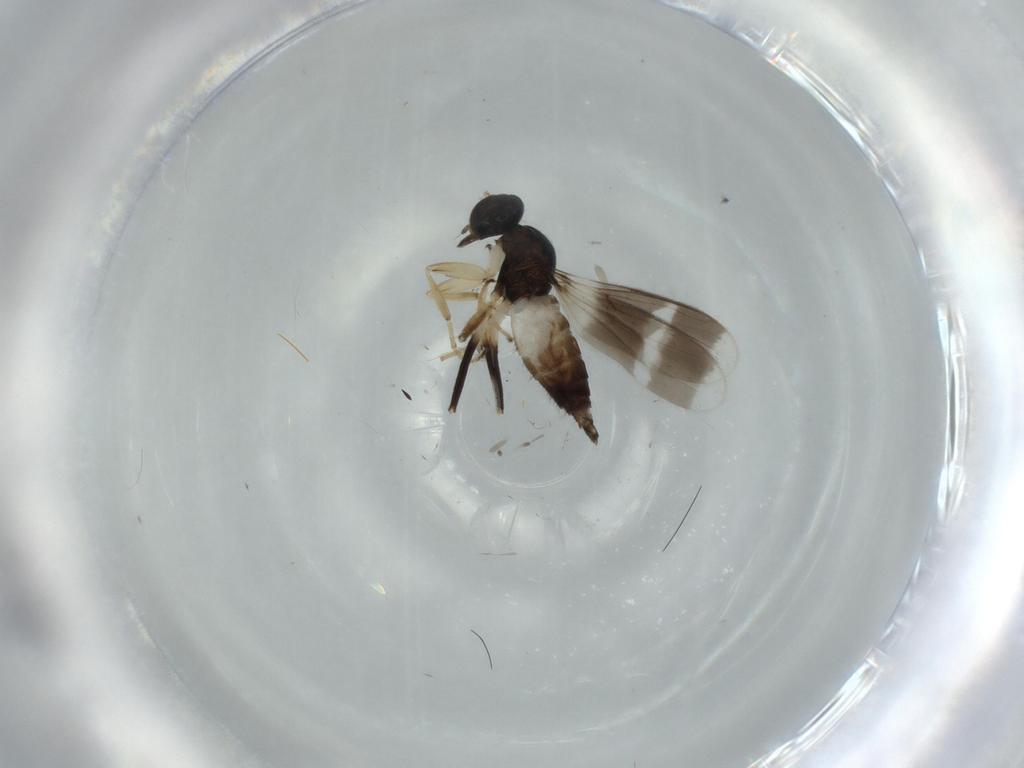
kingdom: Animalia
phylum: Arthropoda
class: Insecta
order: Diptera
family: Hybotidae
